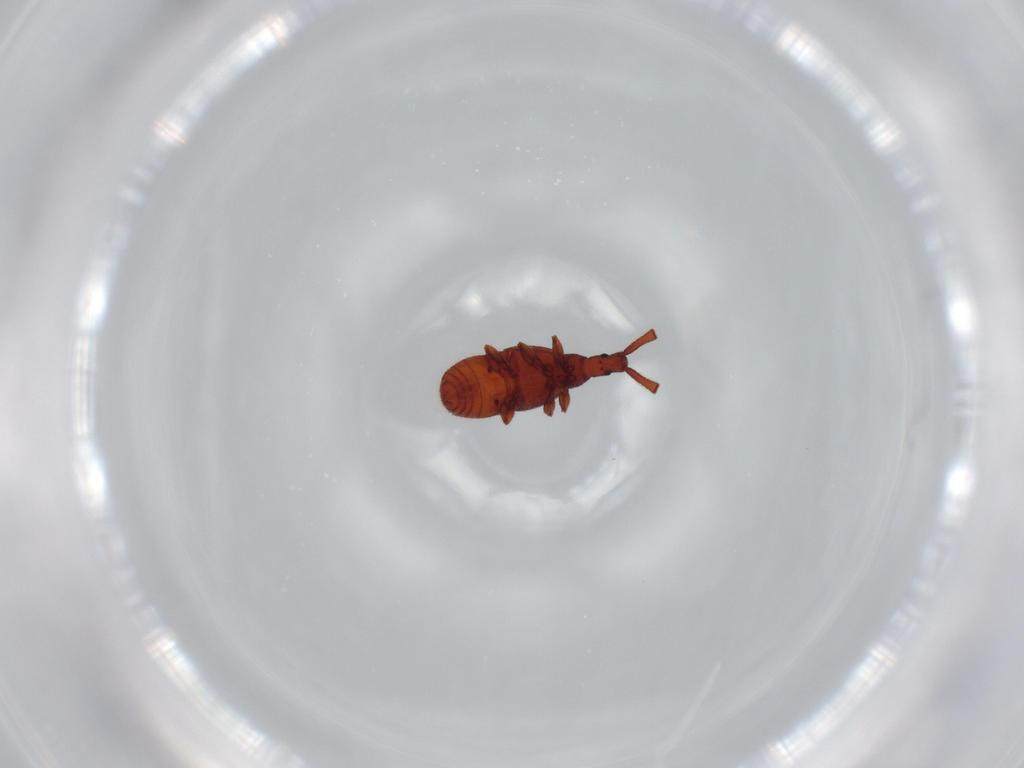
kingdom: Animalia
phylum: Arthropoda
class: Insecta
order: Coleoptera
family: Staphylinidae
